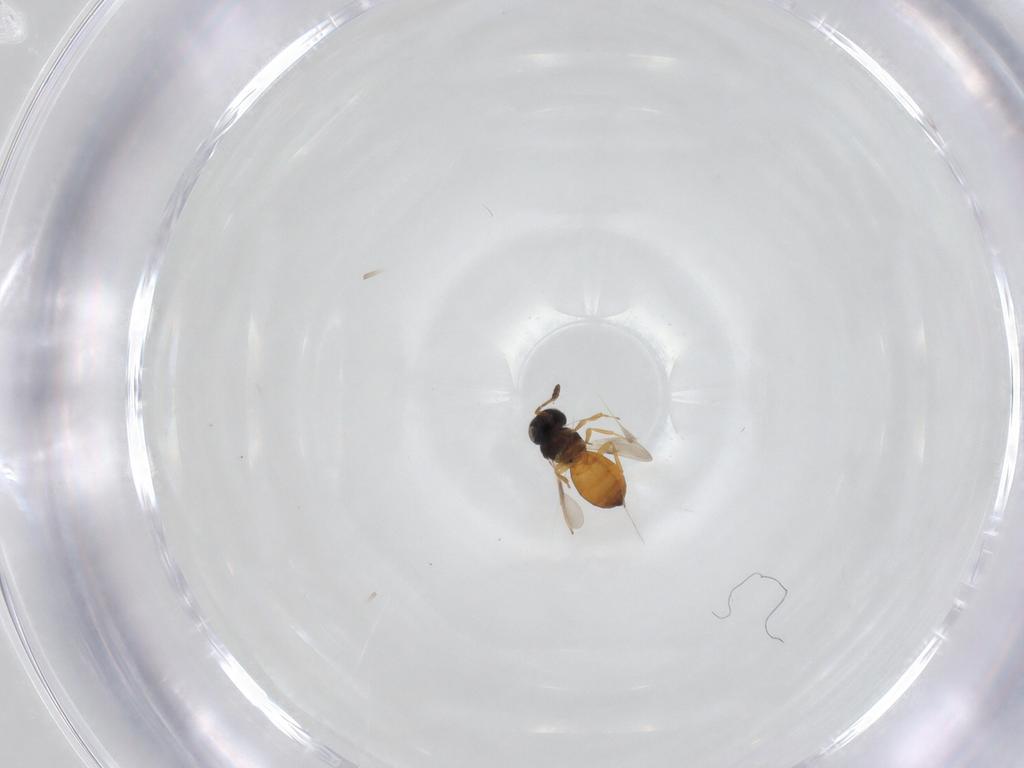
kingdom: Animalia
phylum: Arthropoda
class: Insecta
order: Hymenoptera
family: Scelionidae
